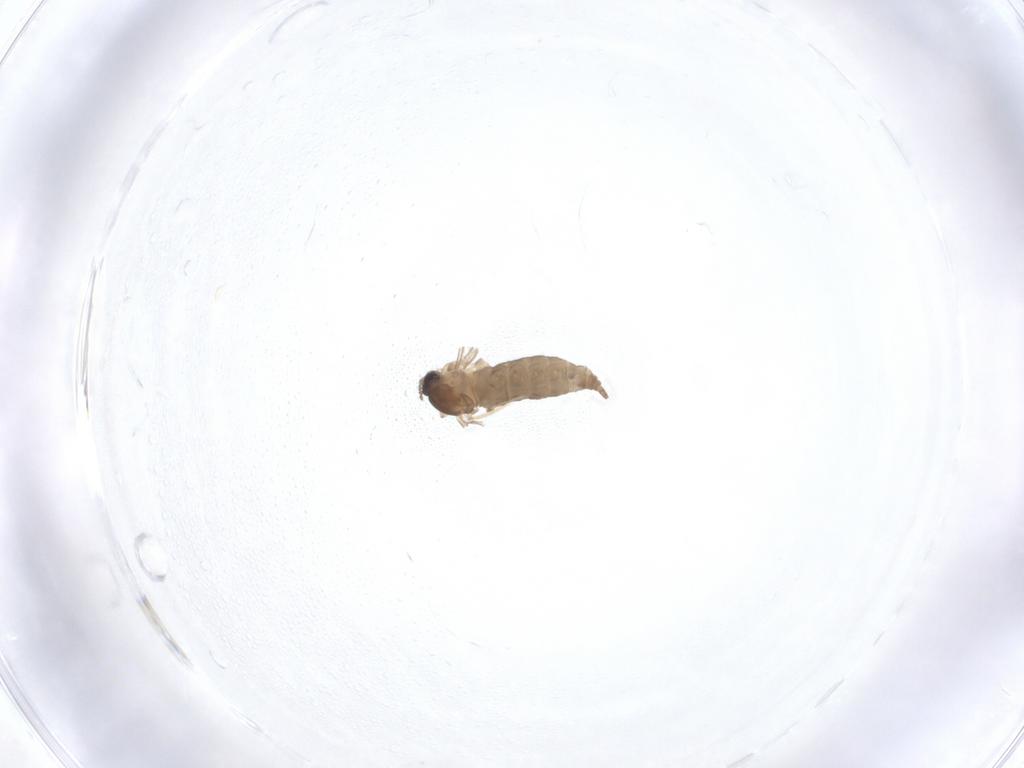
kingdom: Animalia
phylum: Arthropoda
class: Insecta
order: Diptera
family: Cecidomyiidae
